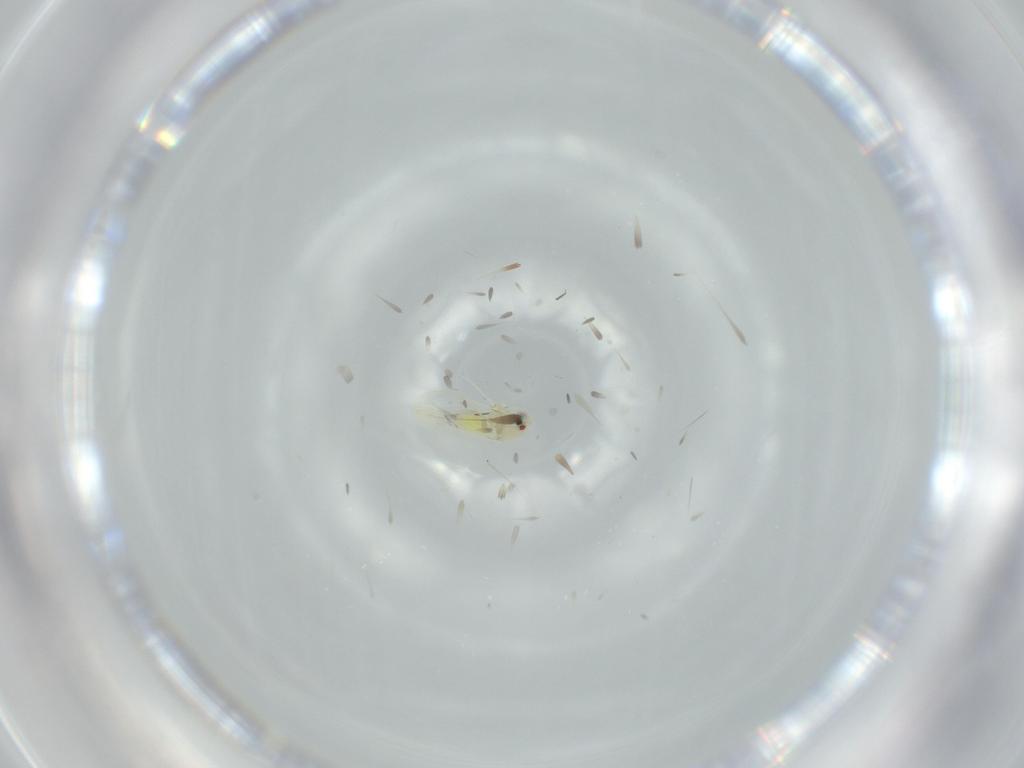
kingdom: Animalia
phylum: Arthropoda
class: Insecta
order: Hemiptera
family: Aleyrodidae
